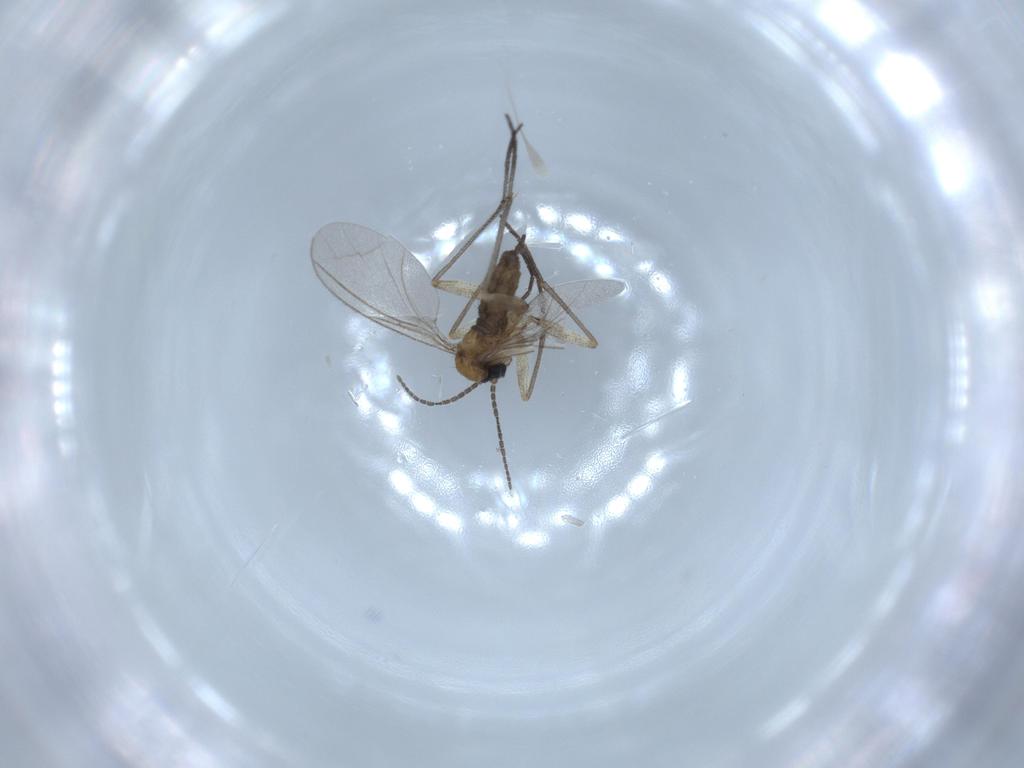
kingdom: Animalia
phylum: Arthropoda
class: Insecta
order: Diptera
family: Sciaridae
